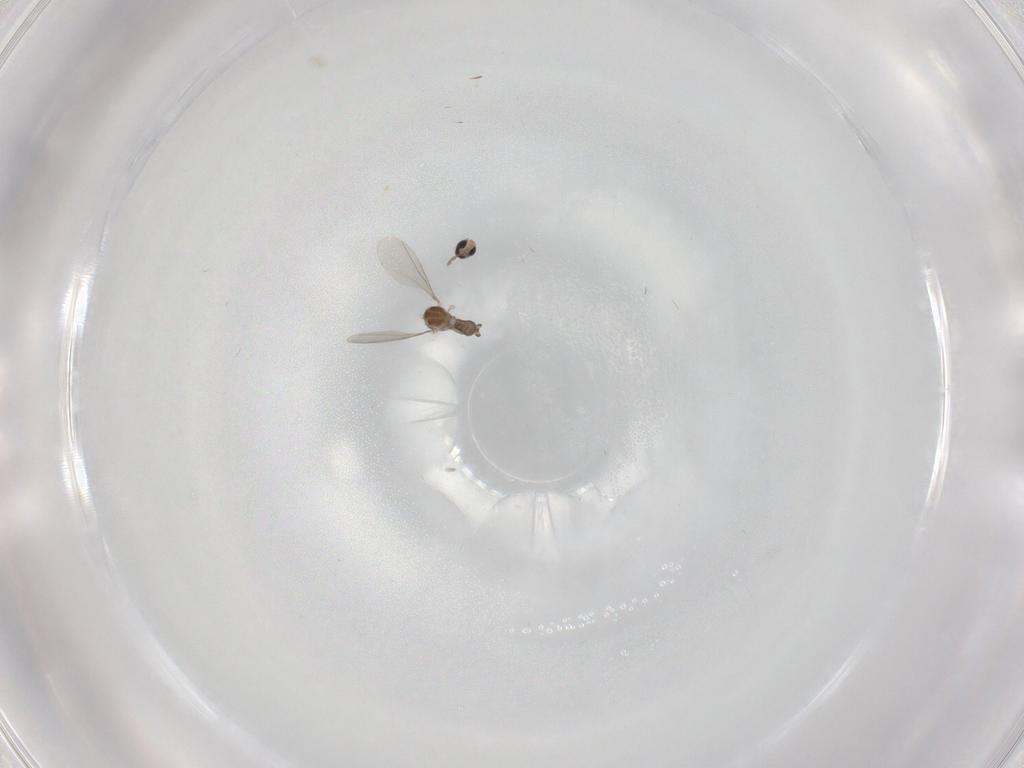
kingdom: Animalia
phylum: Arthropoda
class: Insecta
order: Diptera
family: Cecidomyiidae
